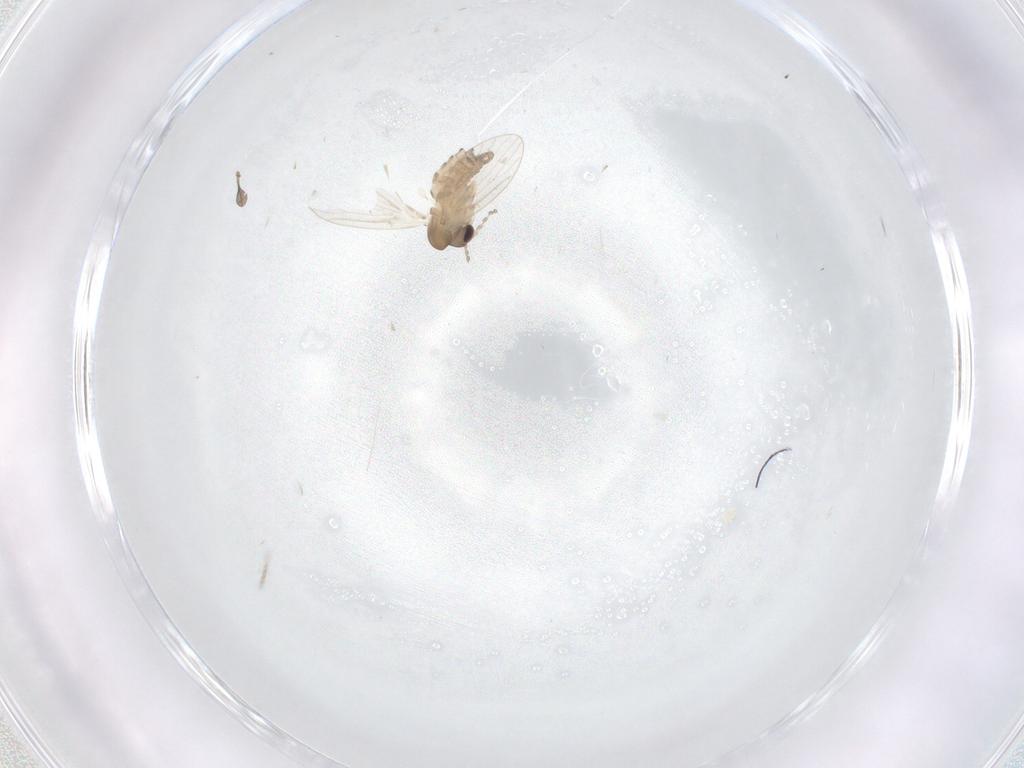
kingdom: Animalia
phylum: Arthropoda
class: Insecta
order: Diptera
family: Psychodidae
